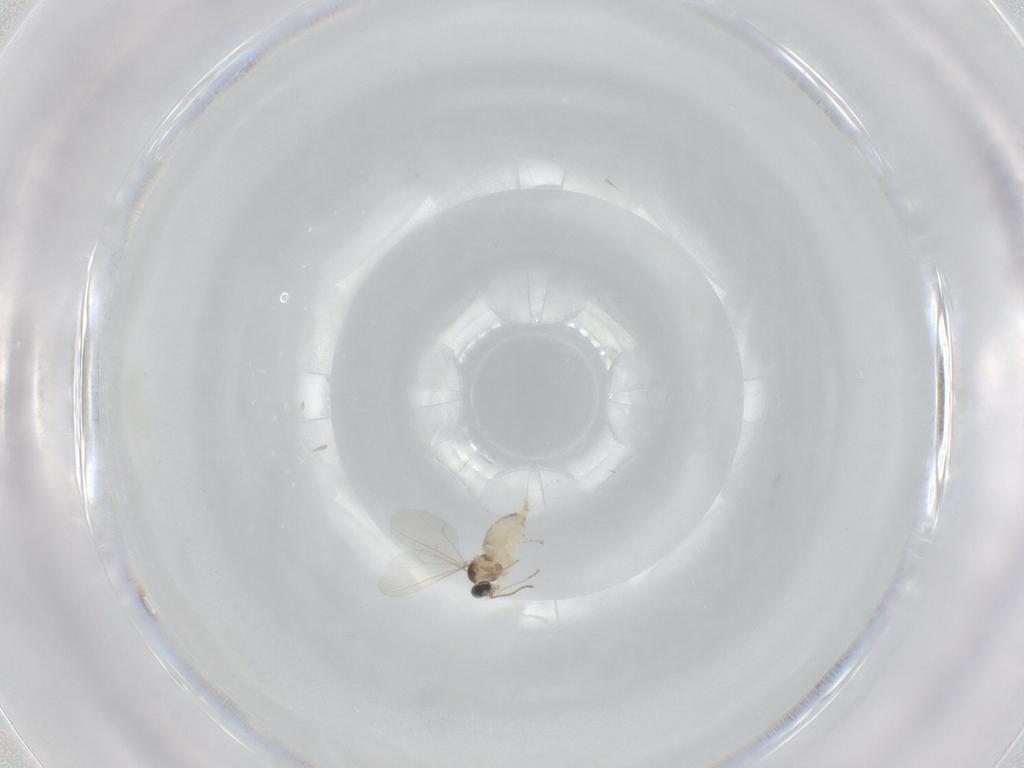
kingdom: Animalia
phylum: Arthropoda
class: Insecta
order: Diptera
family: Cecidomyiidae
